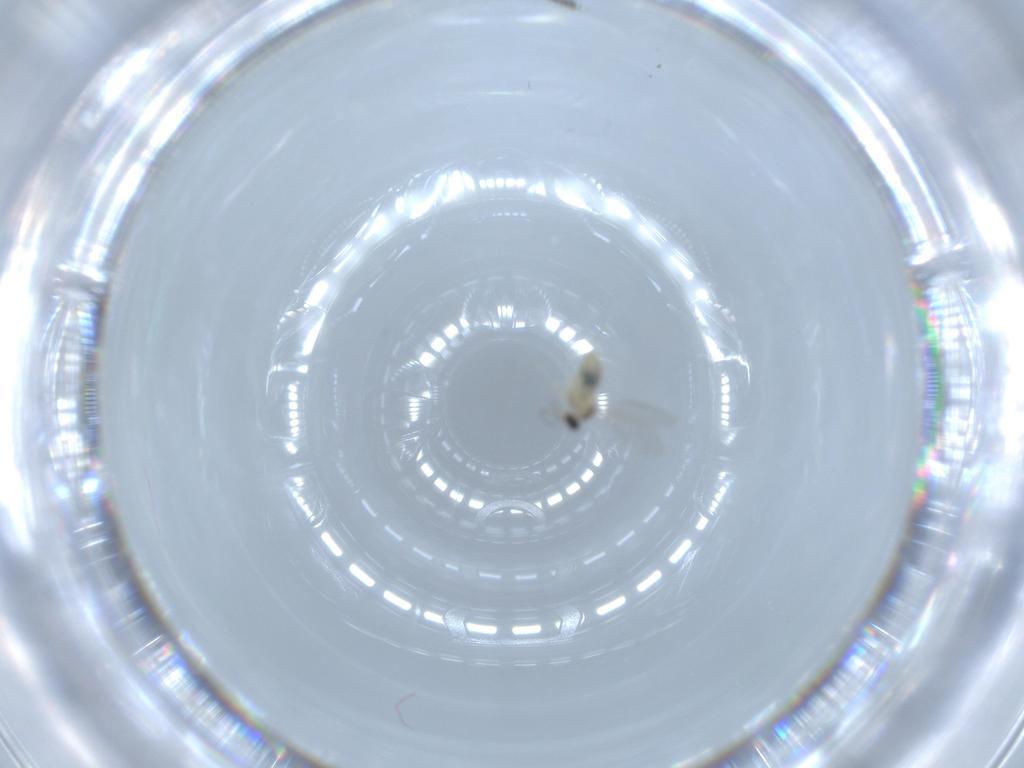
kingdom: Animalia
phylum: Arthropoda
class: Insecta
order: Diptera
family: Cecidomyiidae
